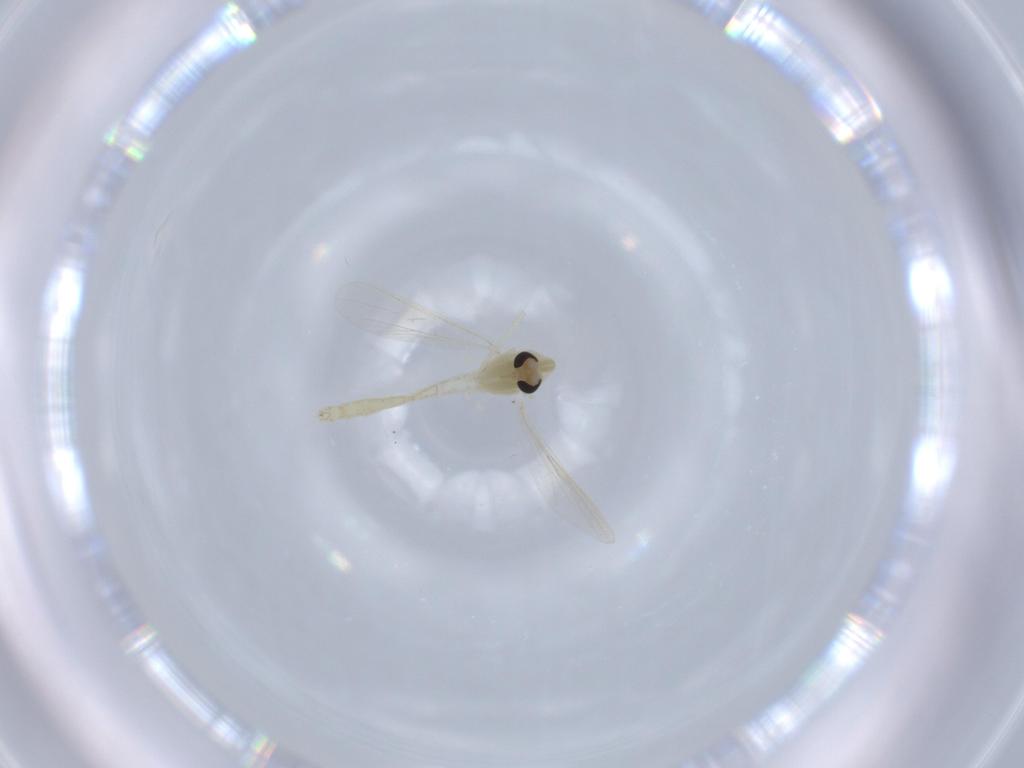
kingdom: Animalia
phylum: Arthropoda
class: Insecta
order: Diptera
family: Chironomidae
